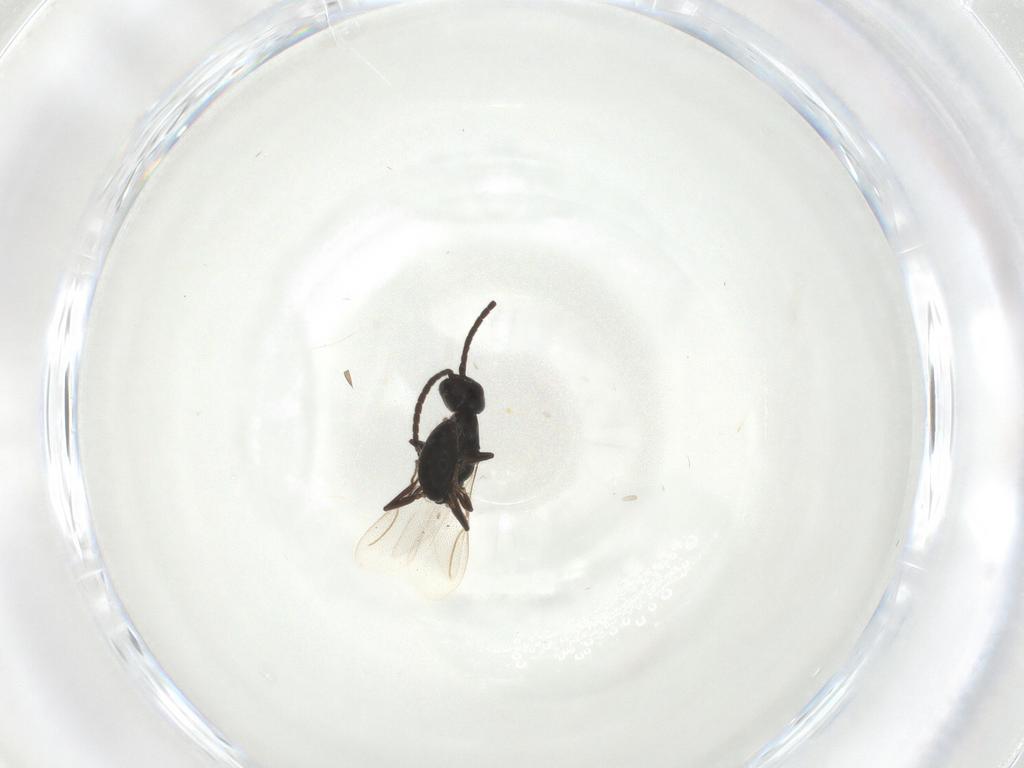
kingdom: Animalia
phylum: Arthropoda
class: Insecta
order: Hymenoptera
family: Bethylidae
